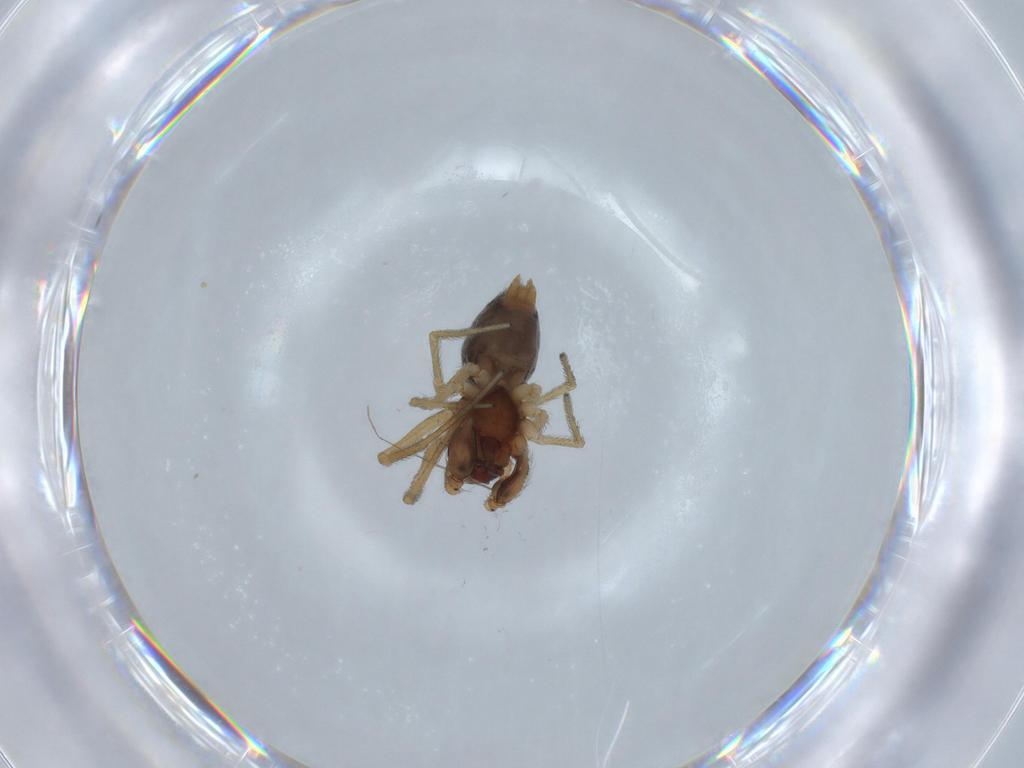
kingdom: Animalia
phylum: Arthropoda
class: Arachnida
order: Araneae
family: Dictynidae
